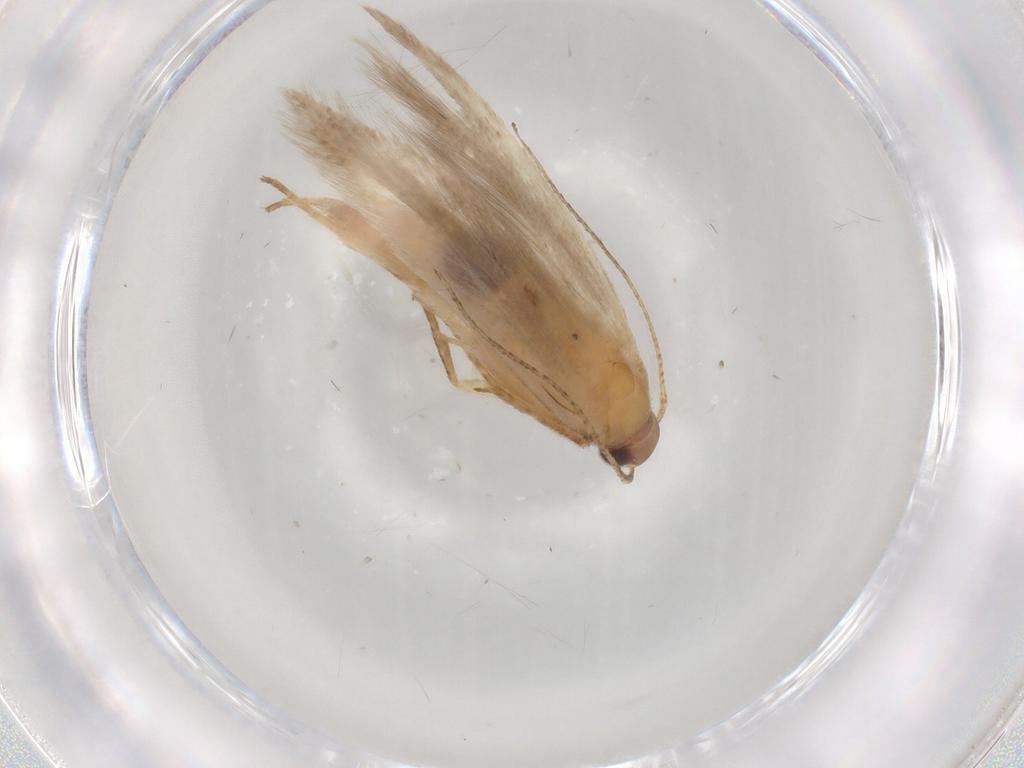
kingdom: Animalia
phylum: Arthropoda
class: Insecta
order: Lepidoptera
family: Gelechiidae
